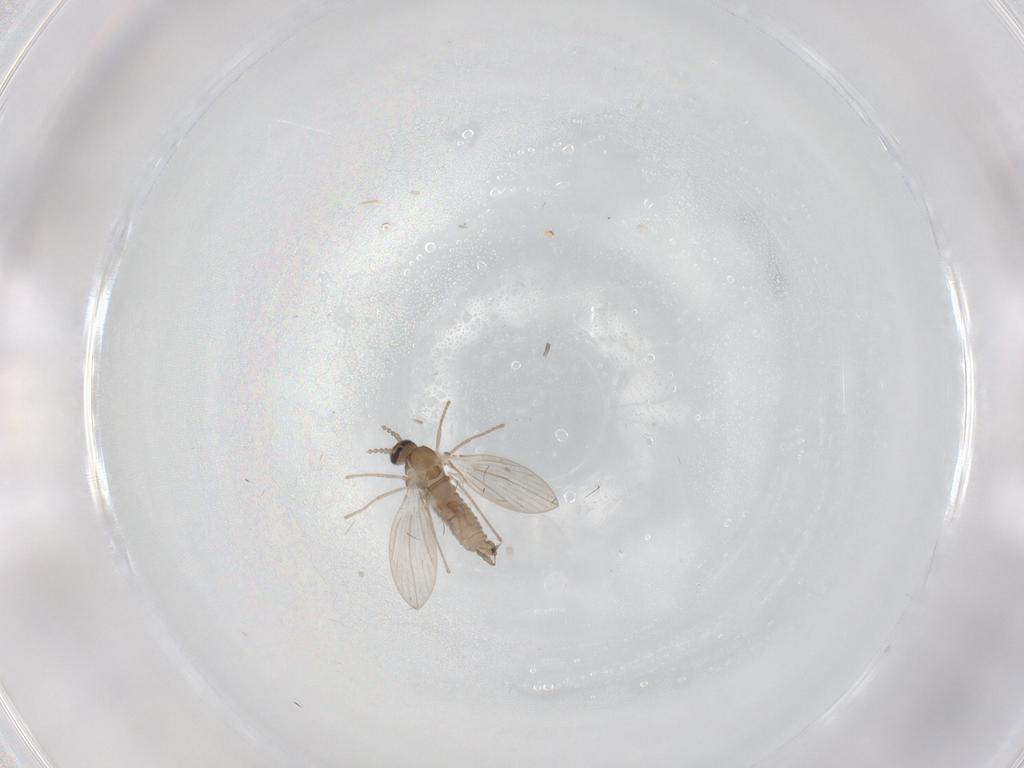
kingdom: Animalia
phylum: Arthropoda
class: Insecta
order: Diptera
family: Psychodidae
